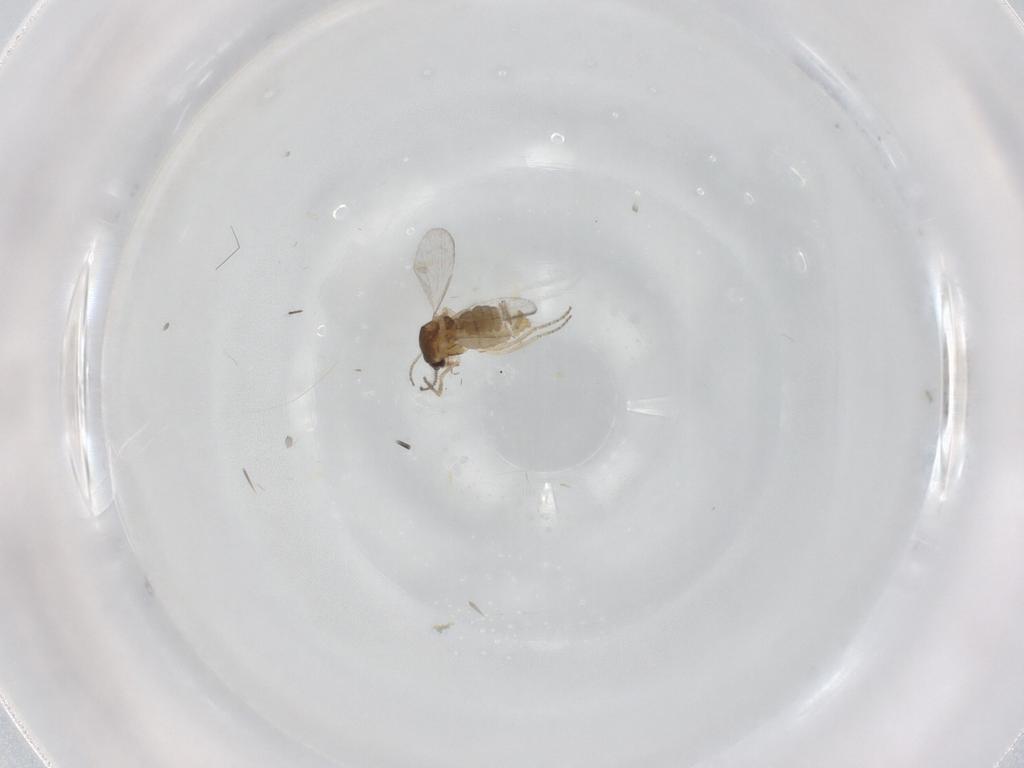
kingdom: Animalia
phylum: Arthropoda
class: Insecta
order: Diptera
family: Ceratopogonidae
